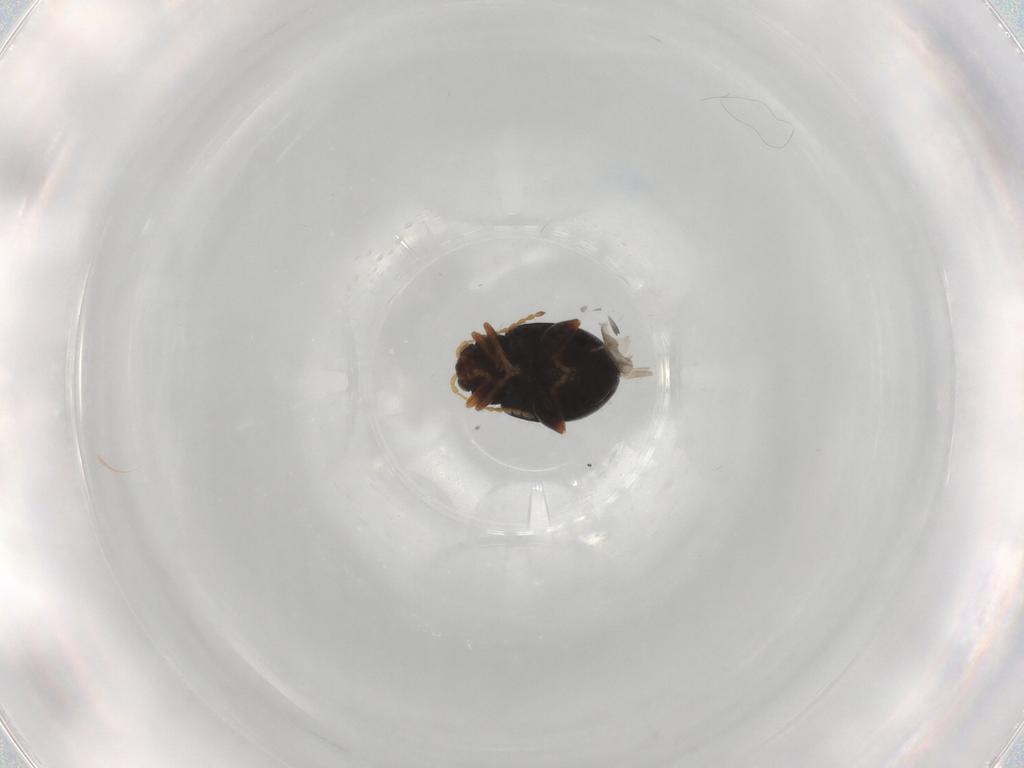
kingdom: Animalia
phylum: Arthropoda
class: Insecta
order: Coleoptera
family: Chrysomelidae
